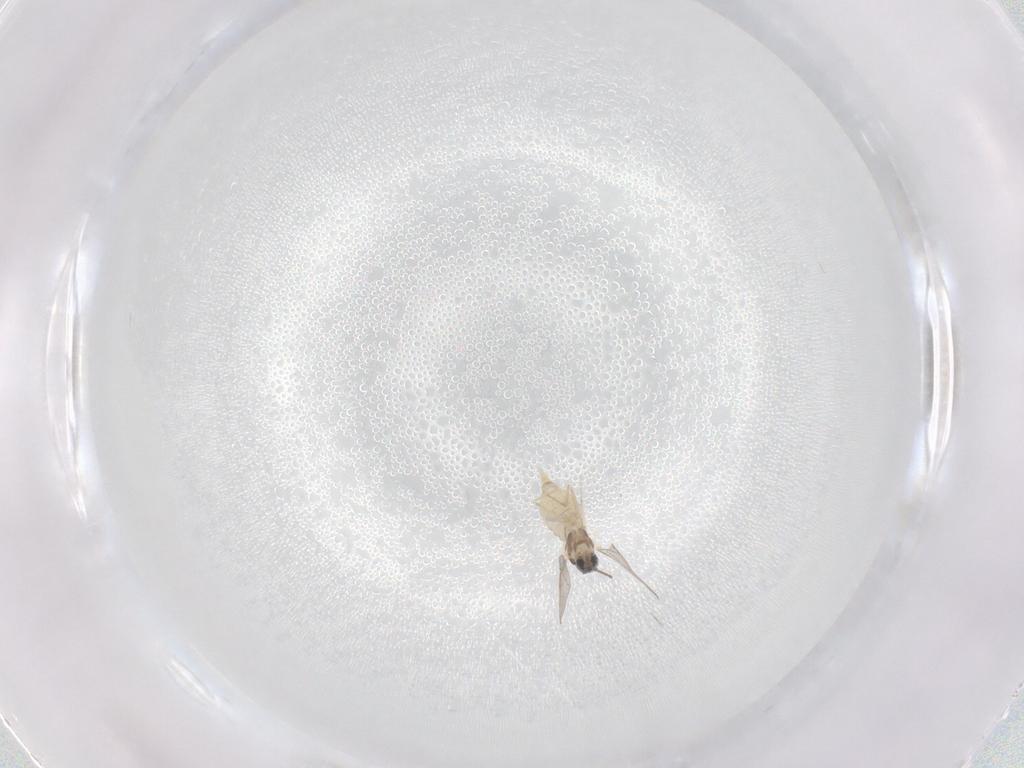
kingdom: Animalia
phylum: Arthropoda
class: Insecta
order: Diptera
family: Cecidomyiidae
